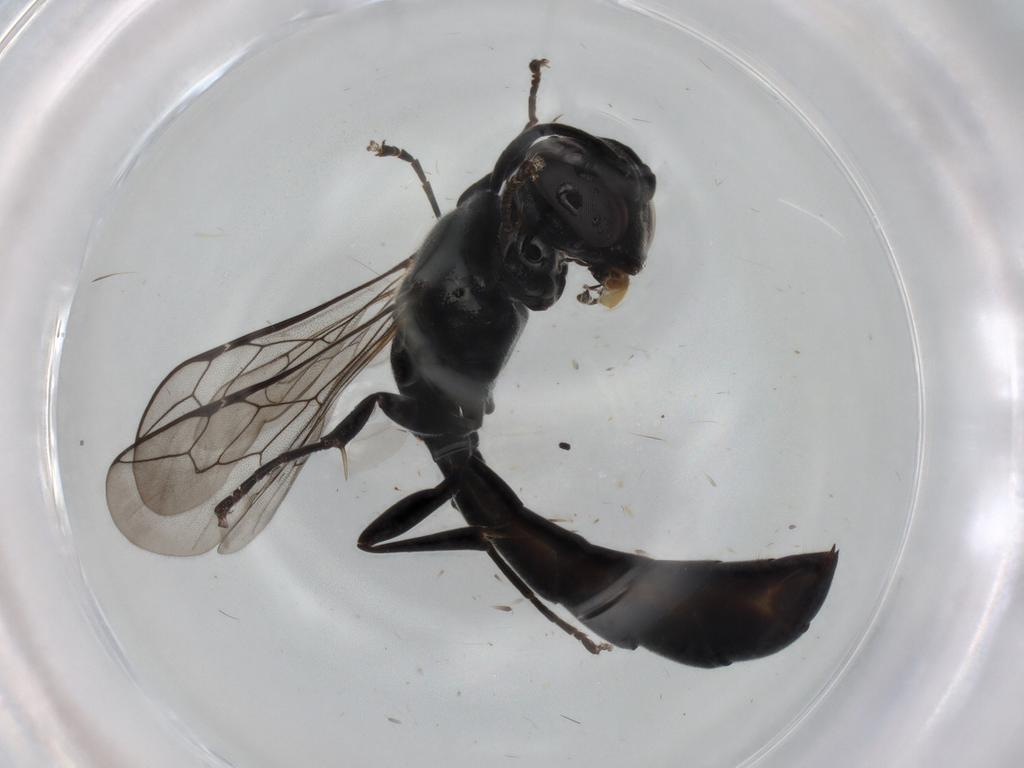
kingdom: Animalia
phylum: Arthropoda
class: Insecta
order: Hymenoptera
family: Crabronidae
